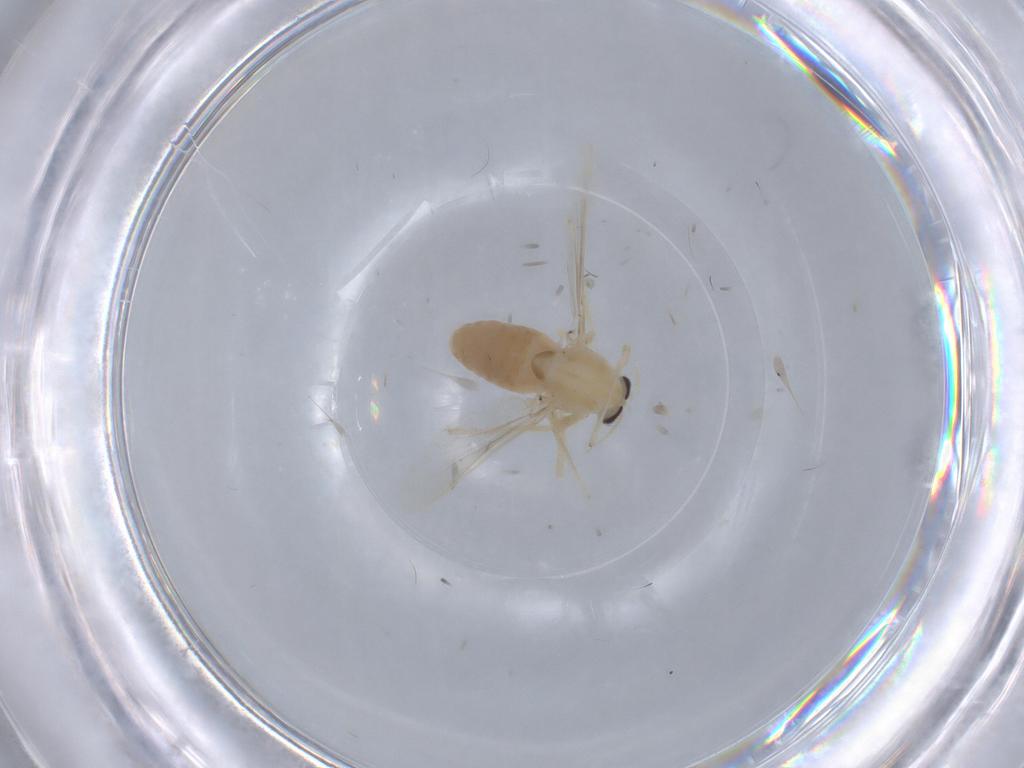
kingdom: Animalia
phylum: Arthropoda
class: Insecta
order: Diptera
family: Chironomidae
